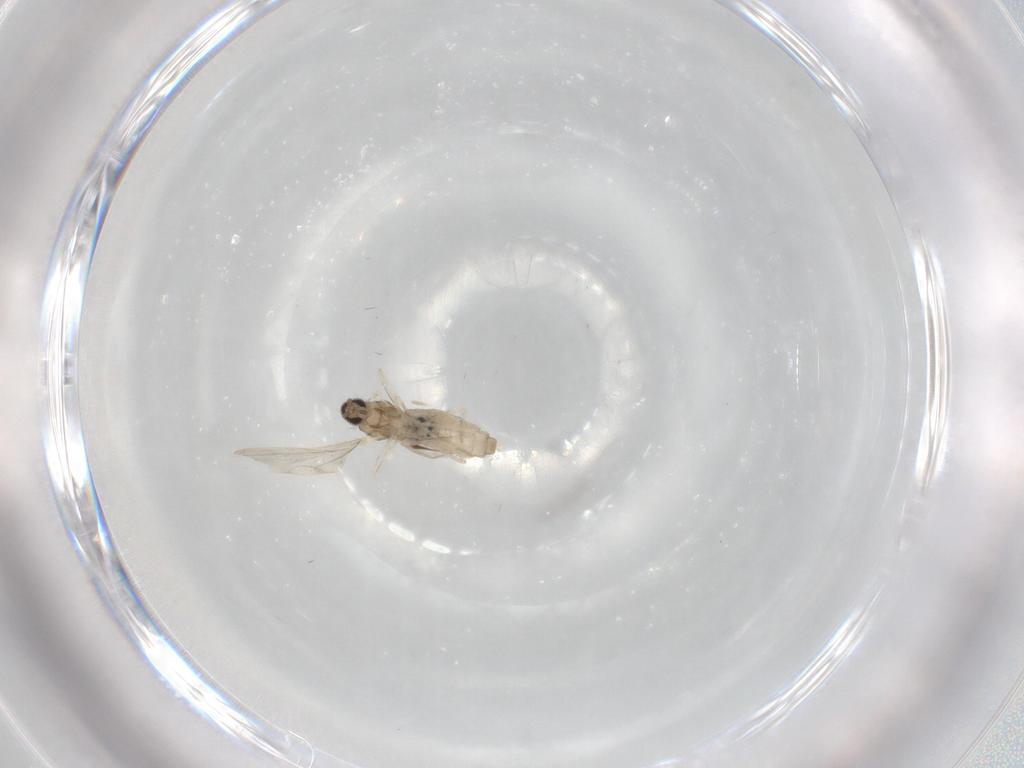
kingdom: Animalia
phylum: Arthropoda
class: Insecta
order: Diptera
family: Cecidomyiidae
